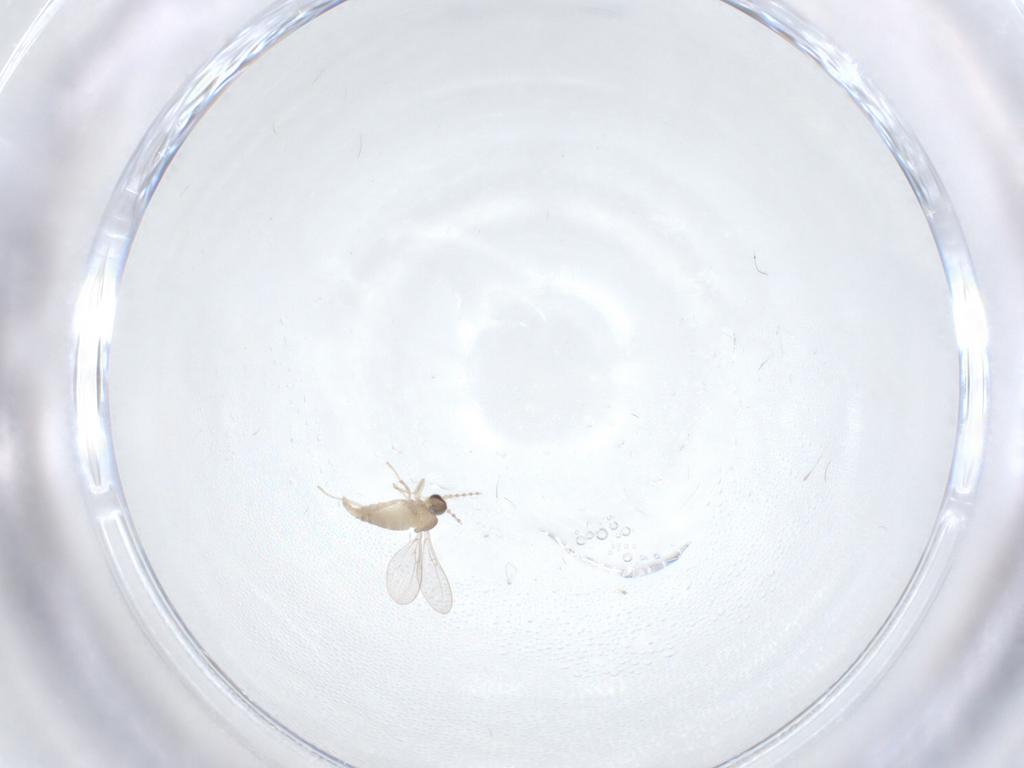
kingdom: Animalia
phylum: Arthropoda
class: Insecta
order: Diptera
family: Cecidomyiidae
